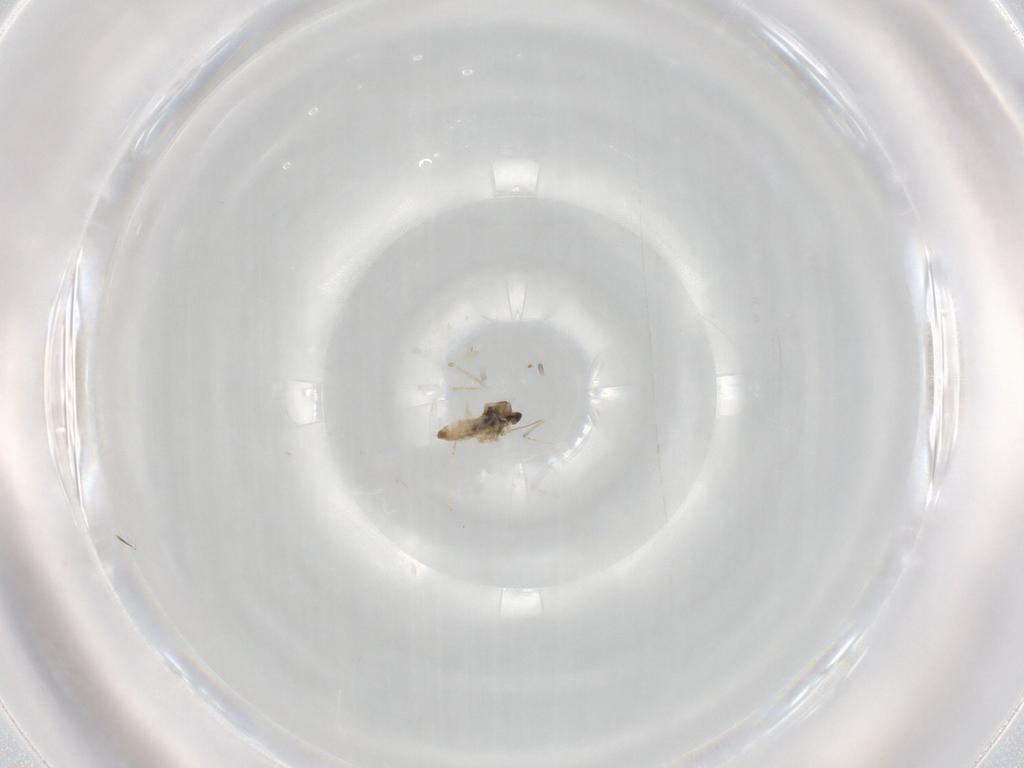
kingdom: Animalia
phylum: Arthropoda
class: Insecta
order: Diptera
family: Cecidomyiidae
